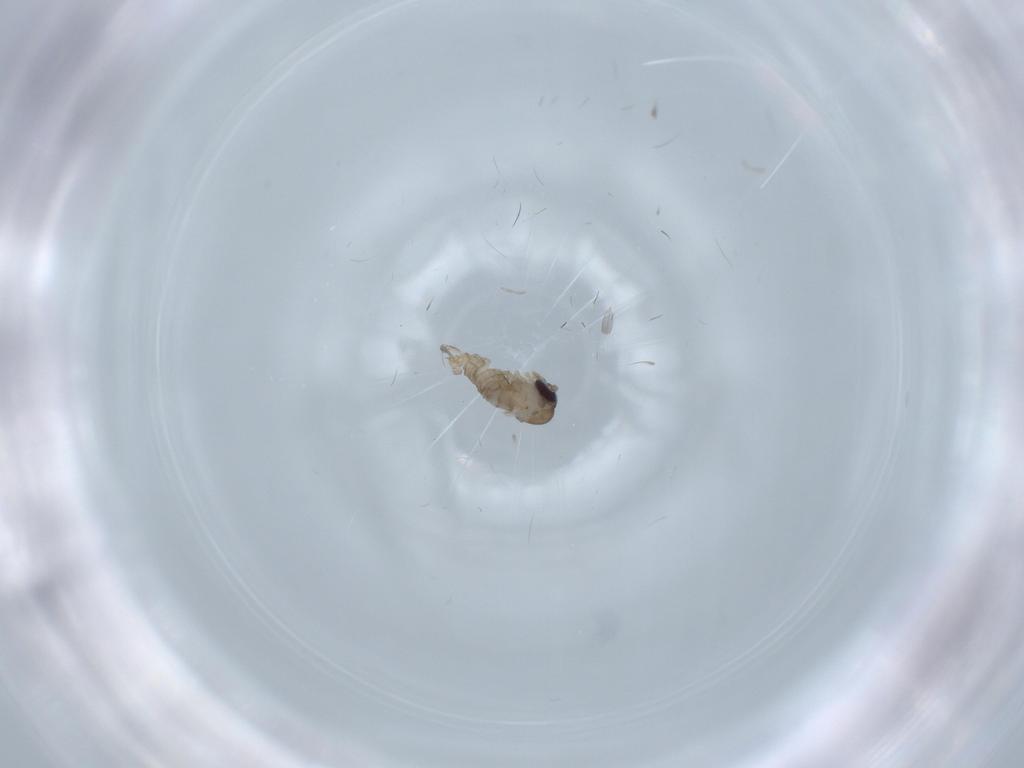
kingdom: Animalia
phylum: Arthropoda
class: Insecta
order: Diptera
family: Psychodidae
